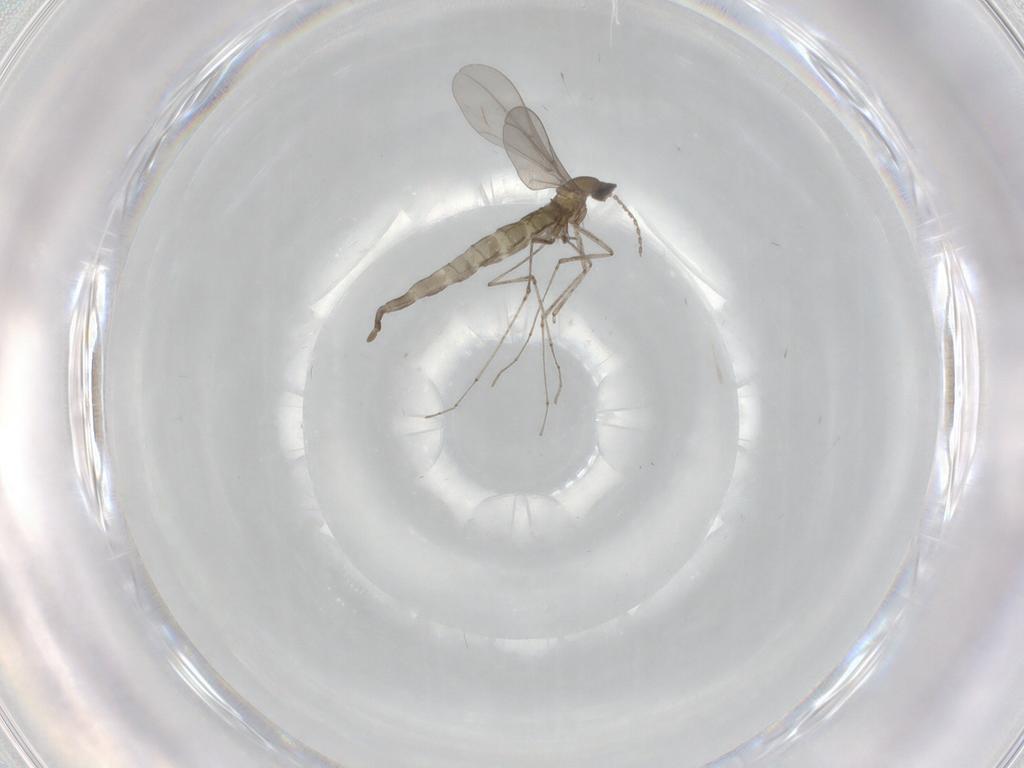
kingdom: Animalia
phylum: Arthropoda
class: Insecta
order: Diptera
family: Cecidomyiidae
